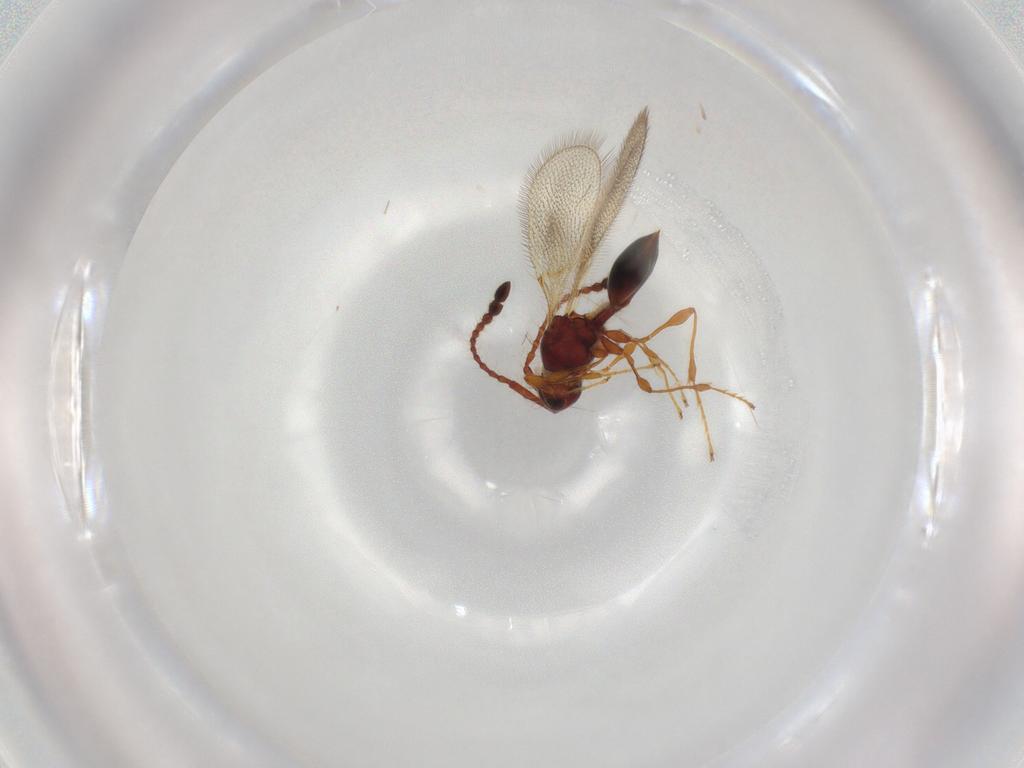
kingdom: Animalia
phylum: Arthropoda
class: Insecta
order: Hymenoptera
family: Diapriidae
